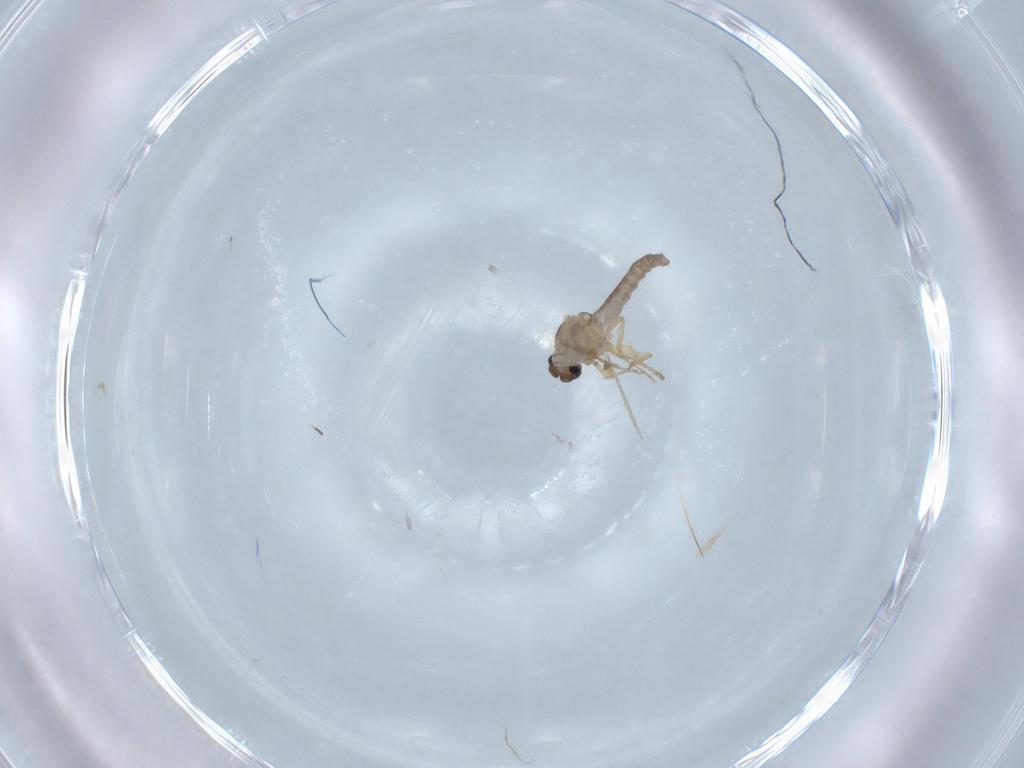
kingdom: Animalia
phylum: Arthropoda
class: Insecta
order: Diptera
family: Ceratopogonidae
